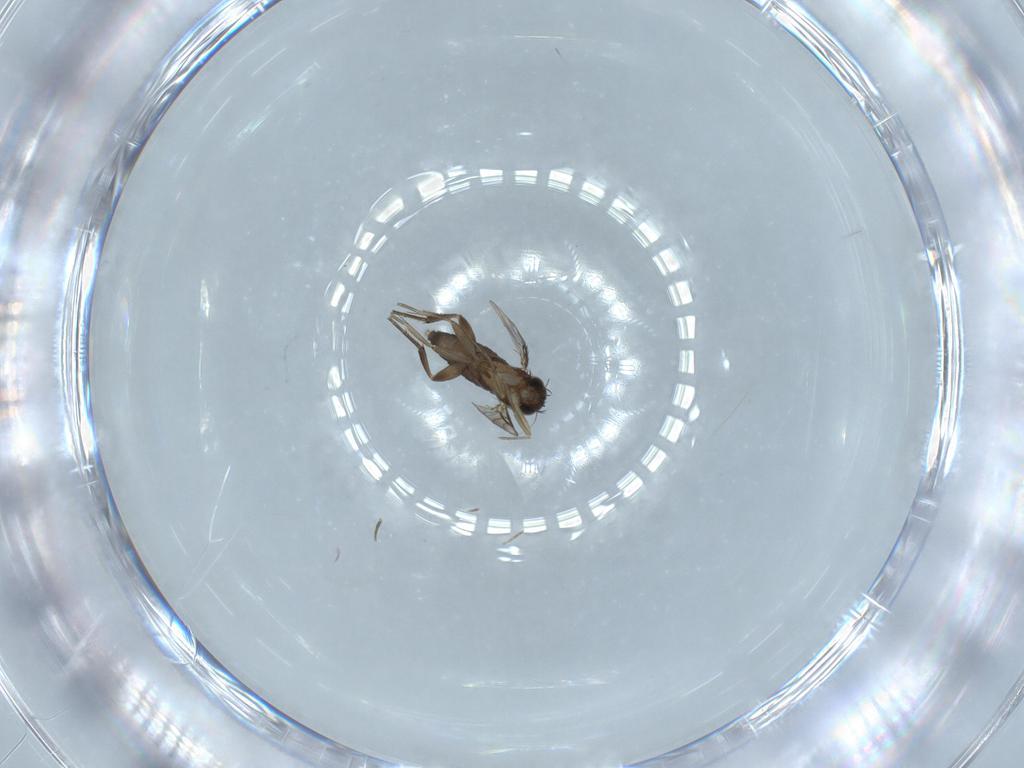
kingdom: Animalia
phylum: Arthropoda
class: Insecta
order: Diptera
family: Phoridae
